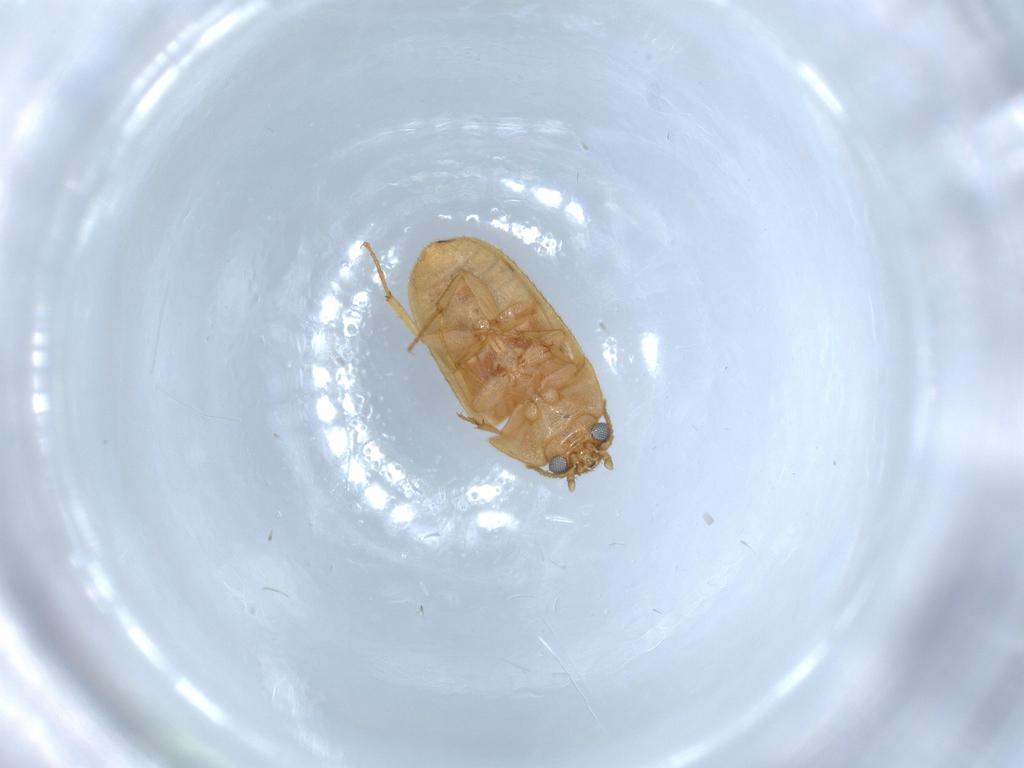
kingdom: Animalia
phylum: Arthropoda
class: Insecta
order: Coleoptera
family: Mycetophagidae
